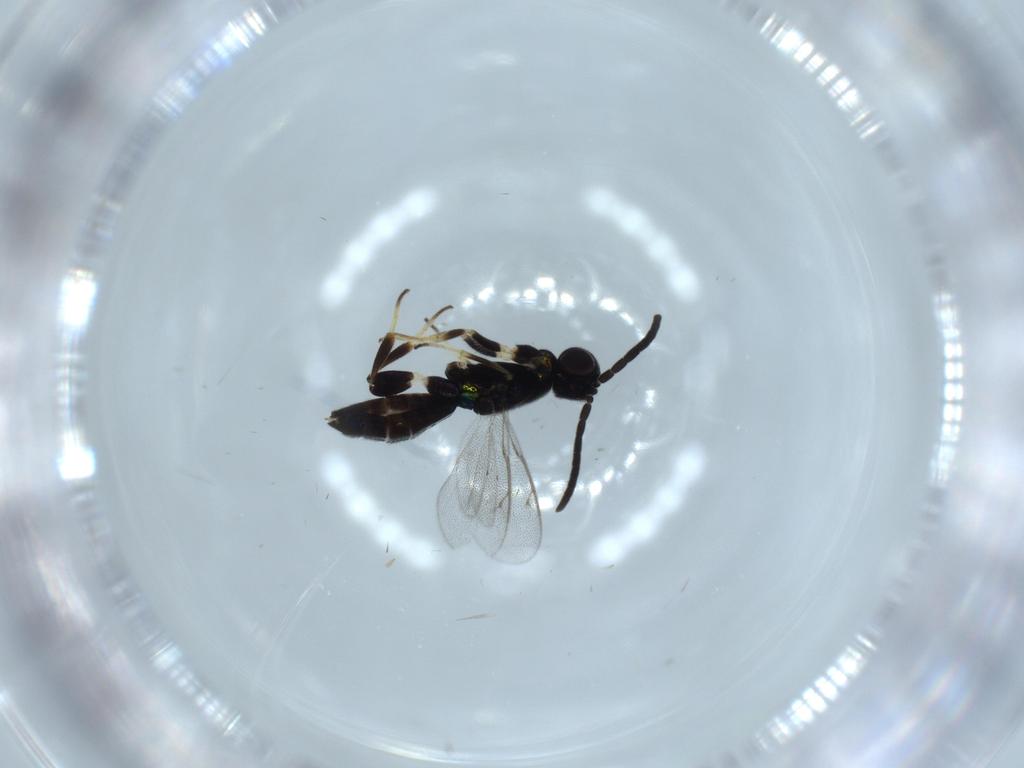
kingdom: Animalia
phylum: Arthropoda
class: Insecta
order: Hymenoptera
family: Eupelmidae
